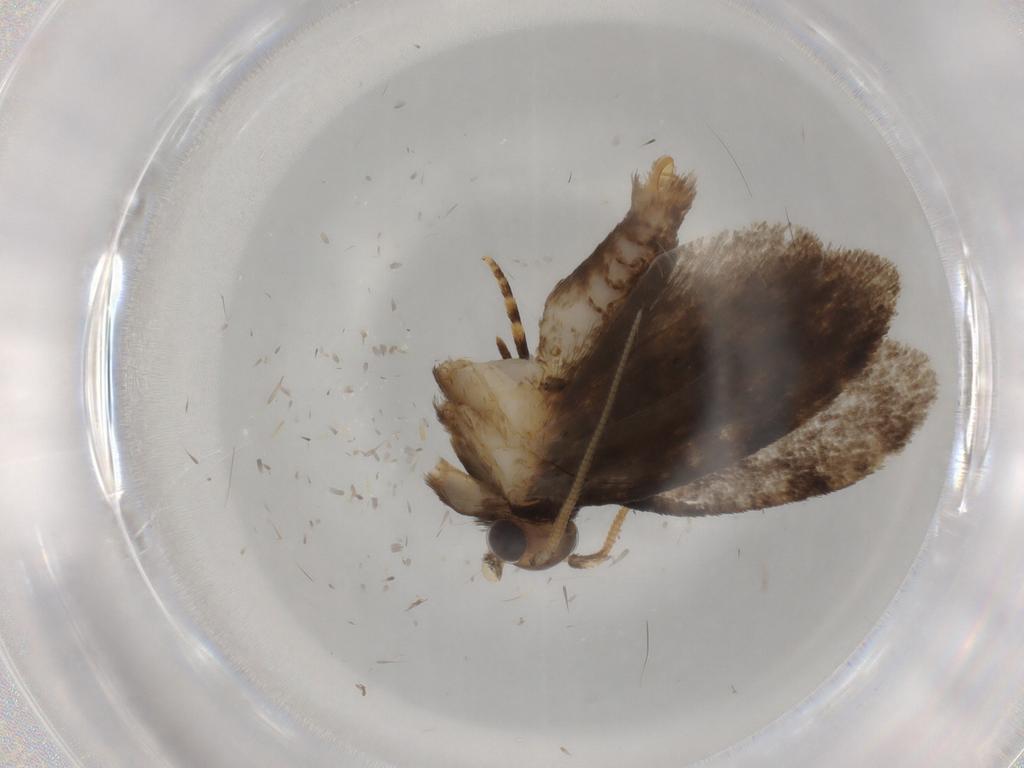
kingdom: Animalia
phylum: Arthropoda
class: Insecta
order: Lepidoptera
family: Tineidae
